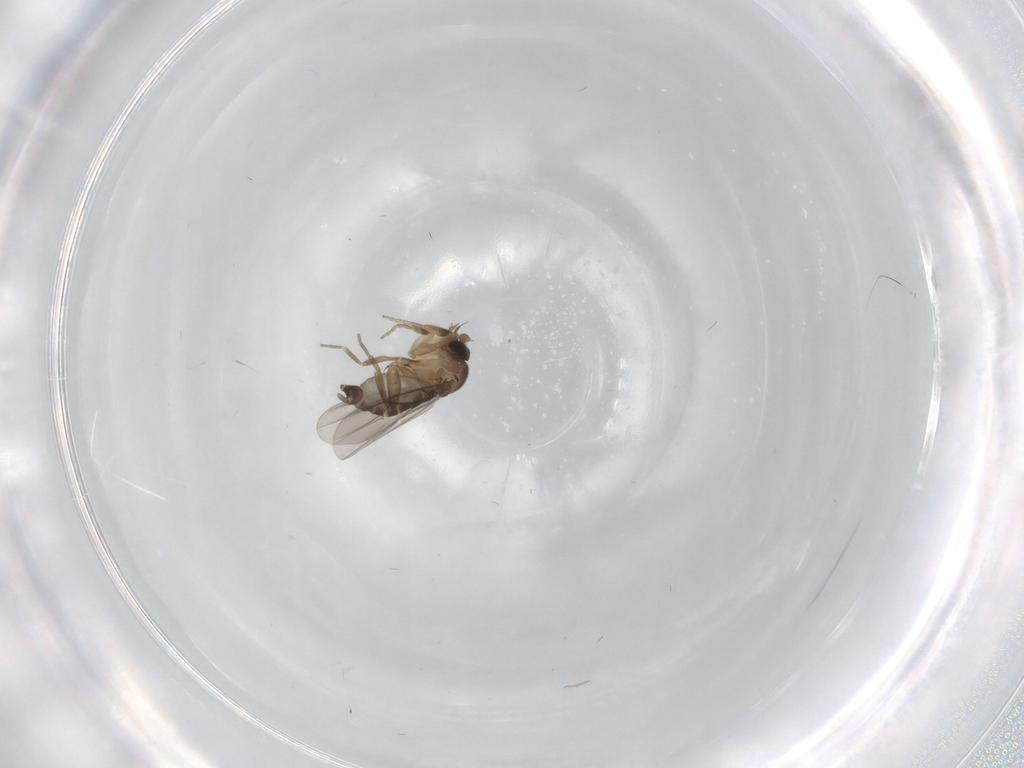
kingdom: Animalia
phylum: Arthropoda
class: Insecta
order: Diptera
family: Phoridae
